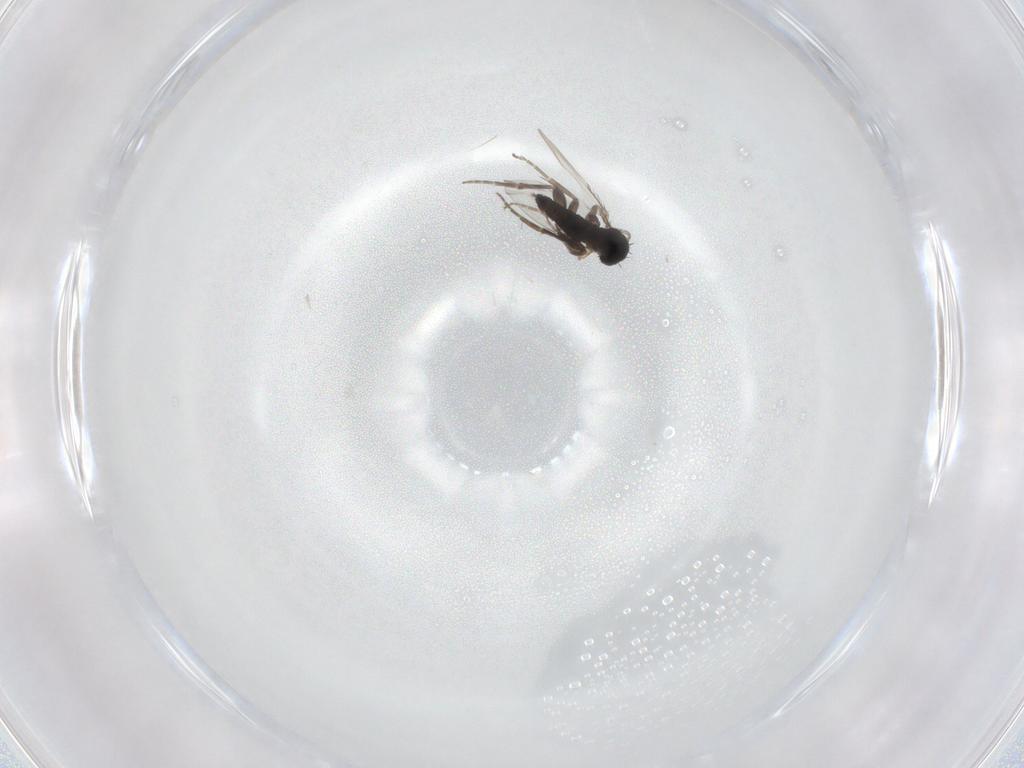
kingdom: Animalia
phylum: Arthropoda
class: Insecta
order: Diptera
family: Phoridae
